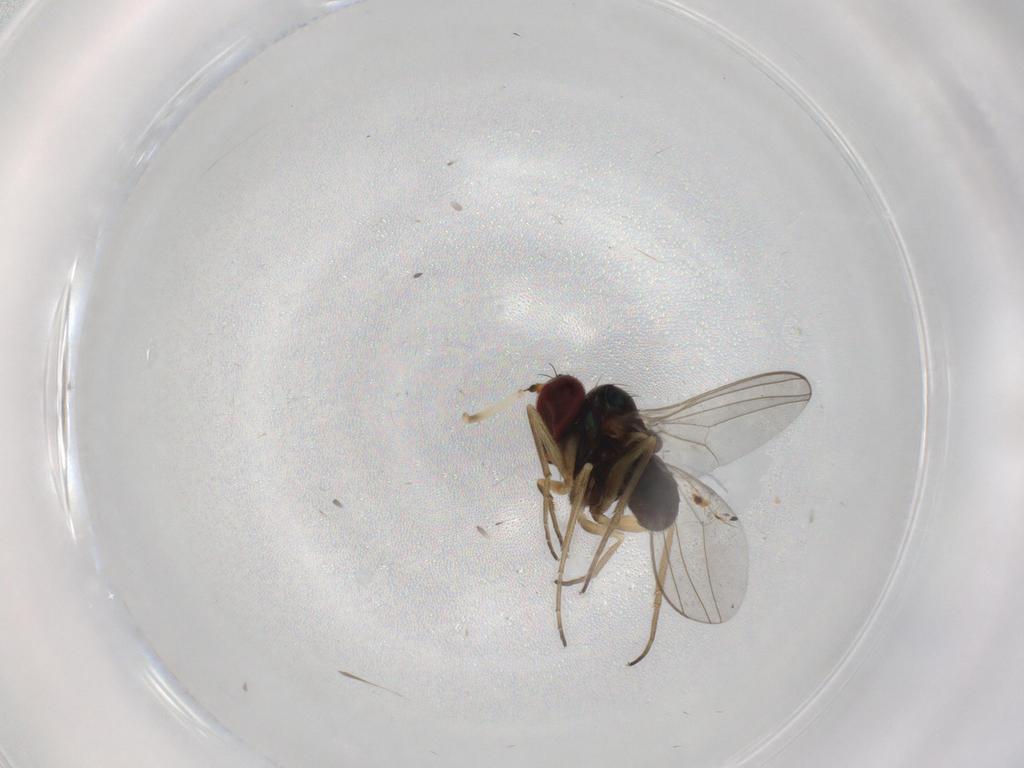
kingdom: Animalia
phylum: Arthropoda
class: Insecta
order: Diptera
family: Ceratopogonidae
